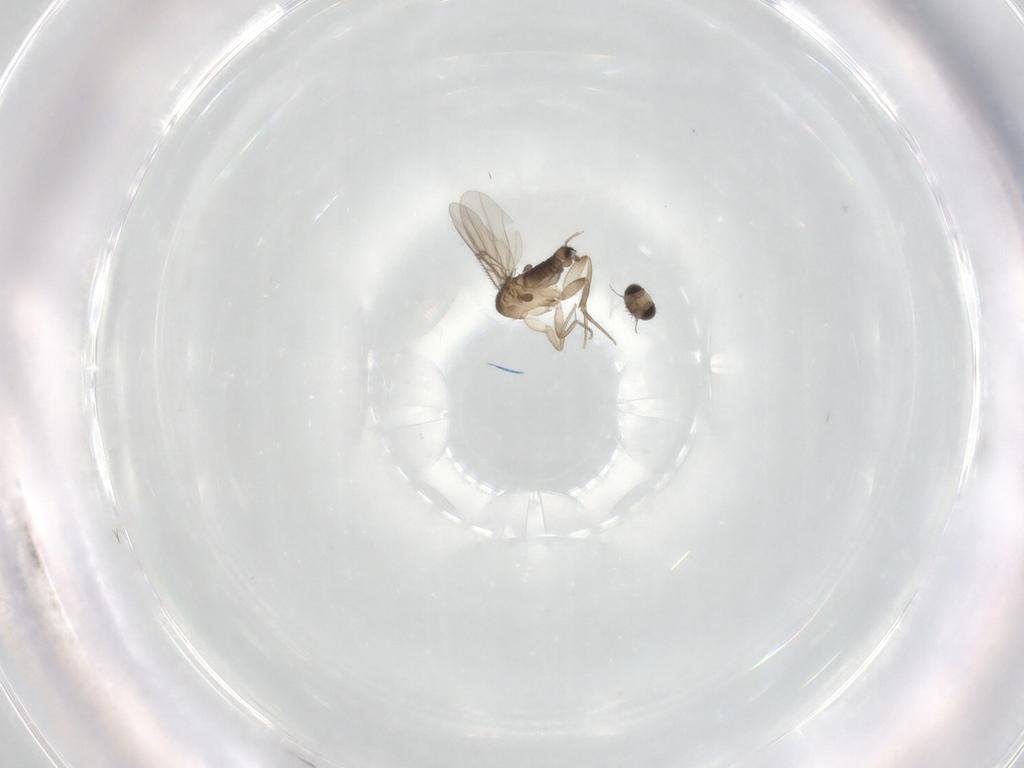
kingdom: Animalia
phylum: Arthropoda
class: Insecta
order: Diptera
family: Phoridae
